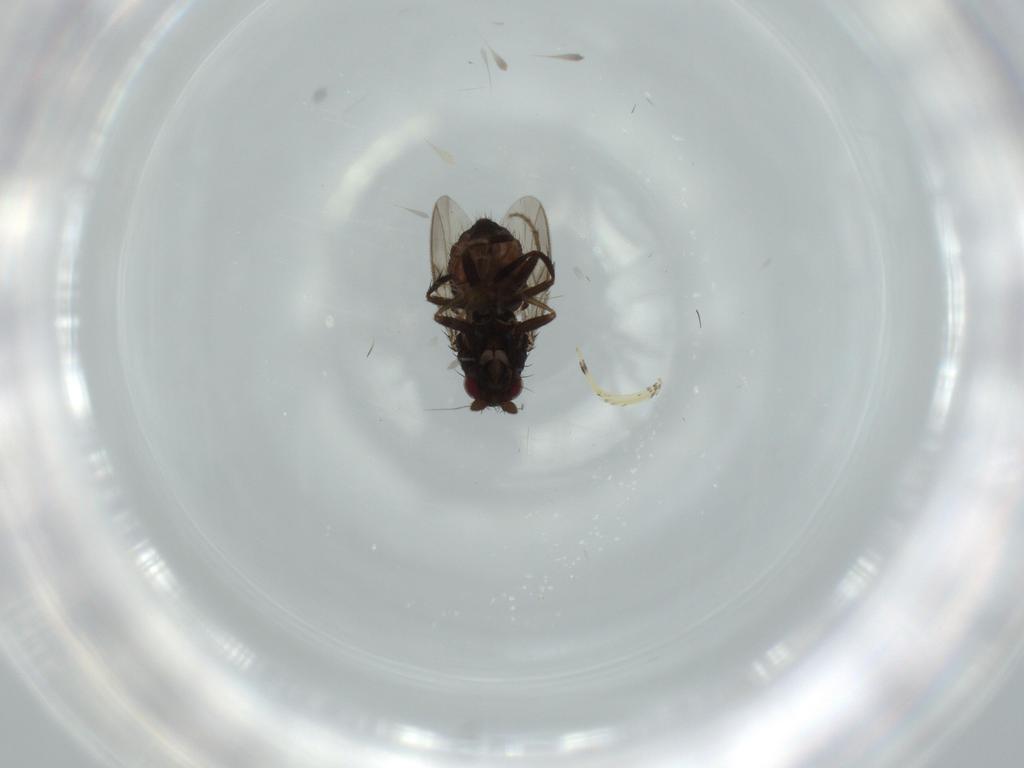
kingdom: Animalia
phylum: Arthropoda
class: Insecta
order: Diptera
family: Sphaeroceridae
